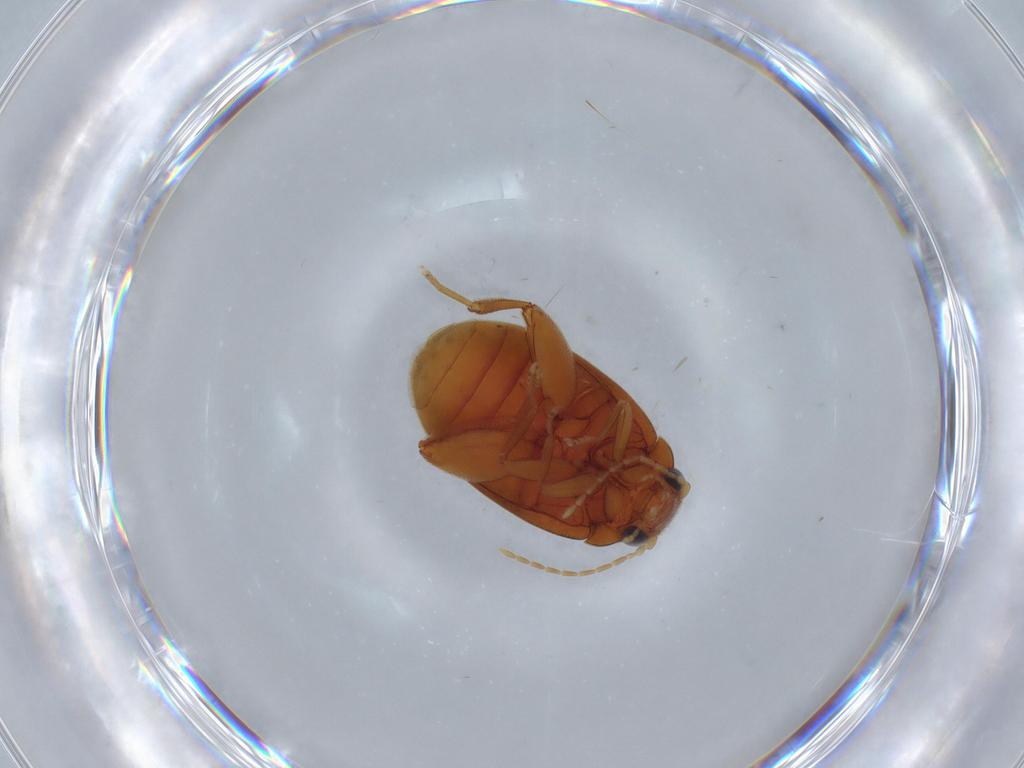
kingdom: Animalia
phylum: Arthropoda
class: Insecta
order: Coleoptera
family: Scirtidae
